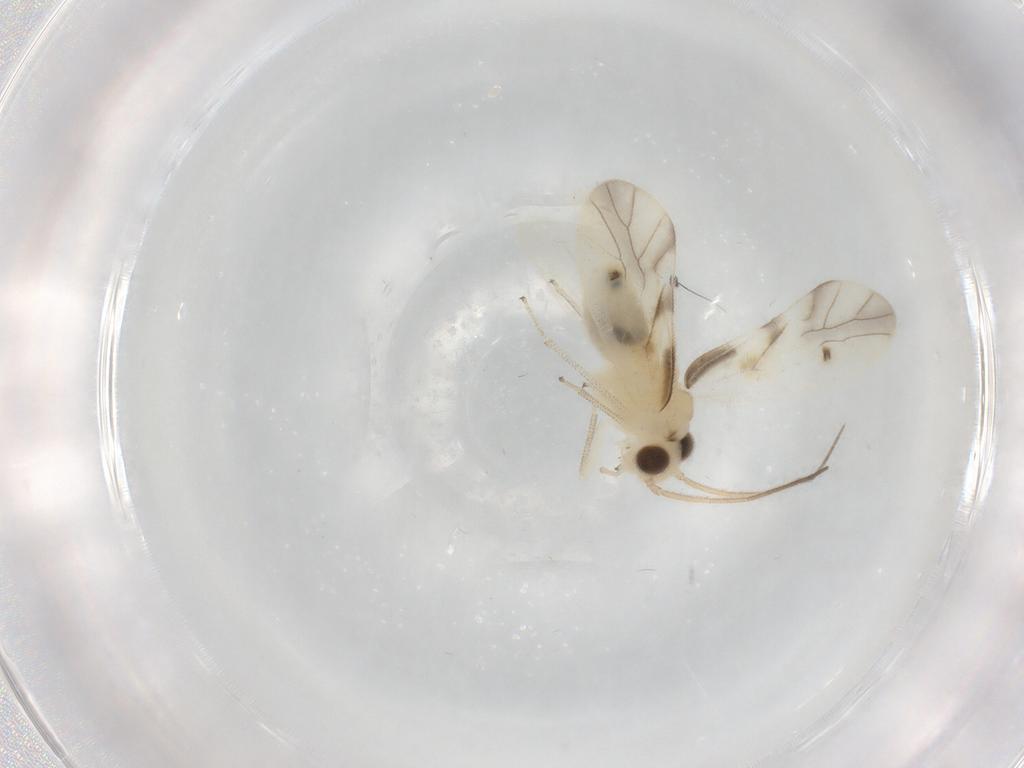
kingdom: Animalia
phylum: Arthropoda
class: Insecta
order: Psocodea
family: Caeciliusidae
